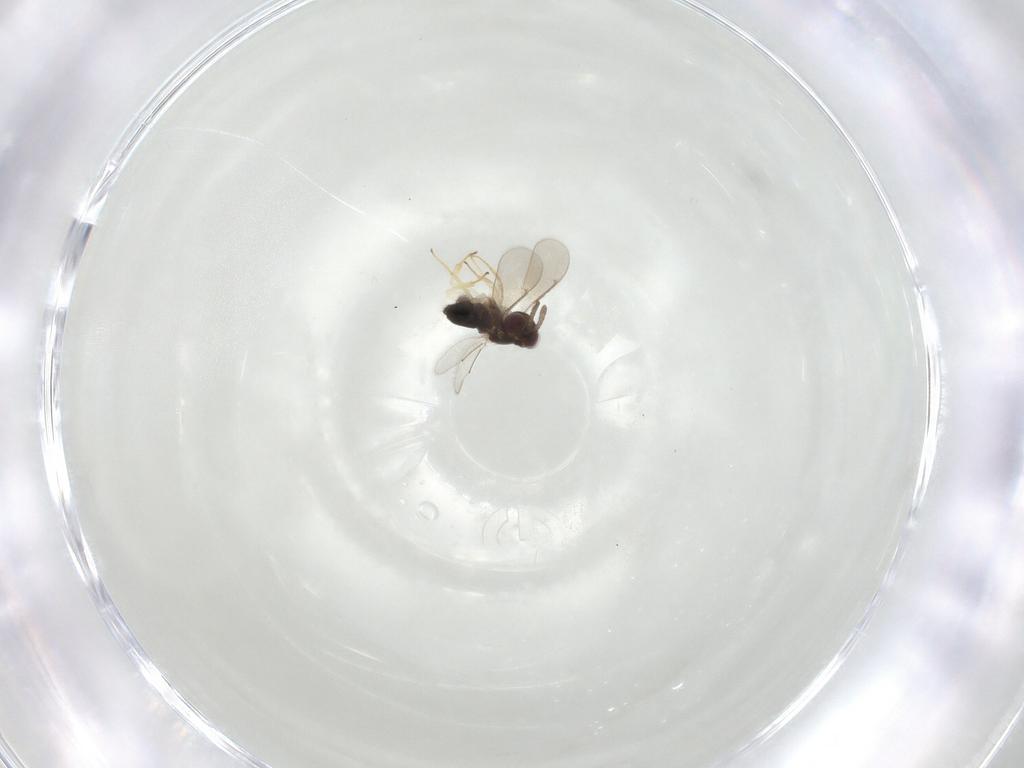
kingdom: Animalia
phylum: Arthropoda
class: Insecta
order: Hymenoptera
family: Aphelinidae
